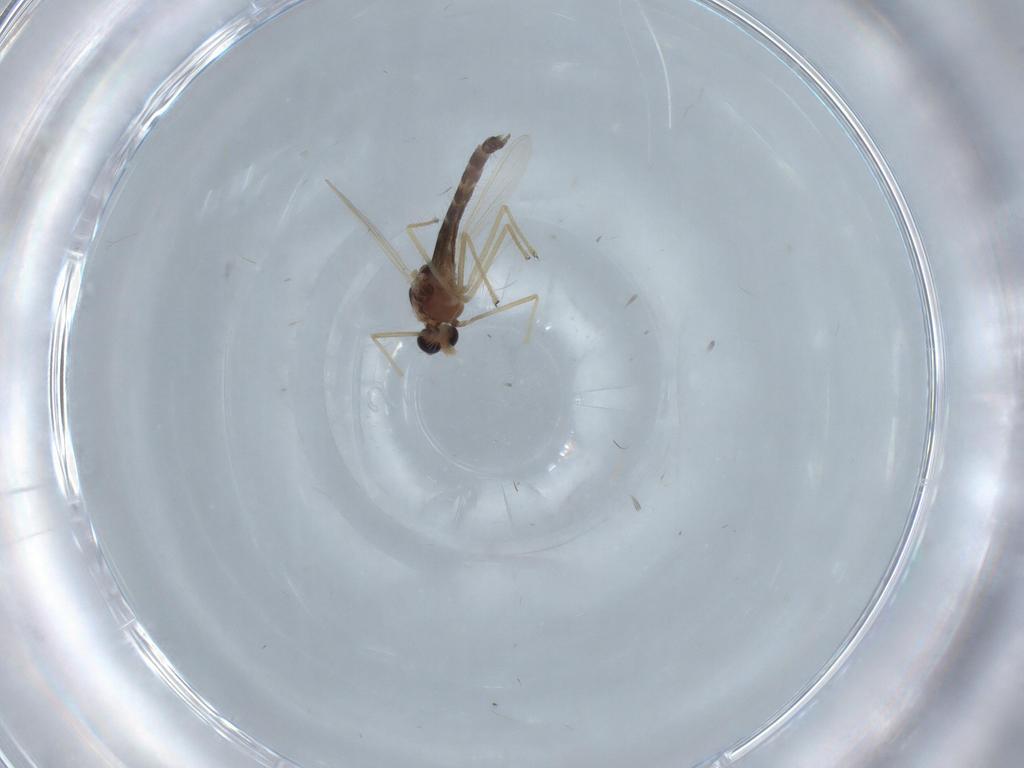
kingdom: Animalia
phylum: Arthropoda
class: Insecta
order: Diptera
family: Chironomidae
